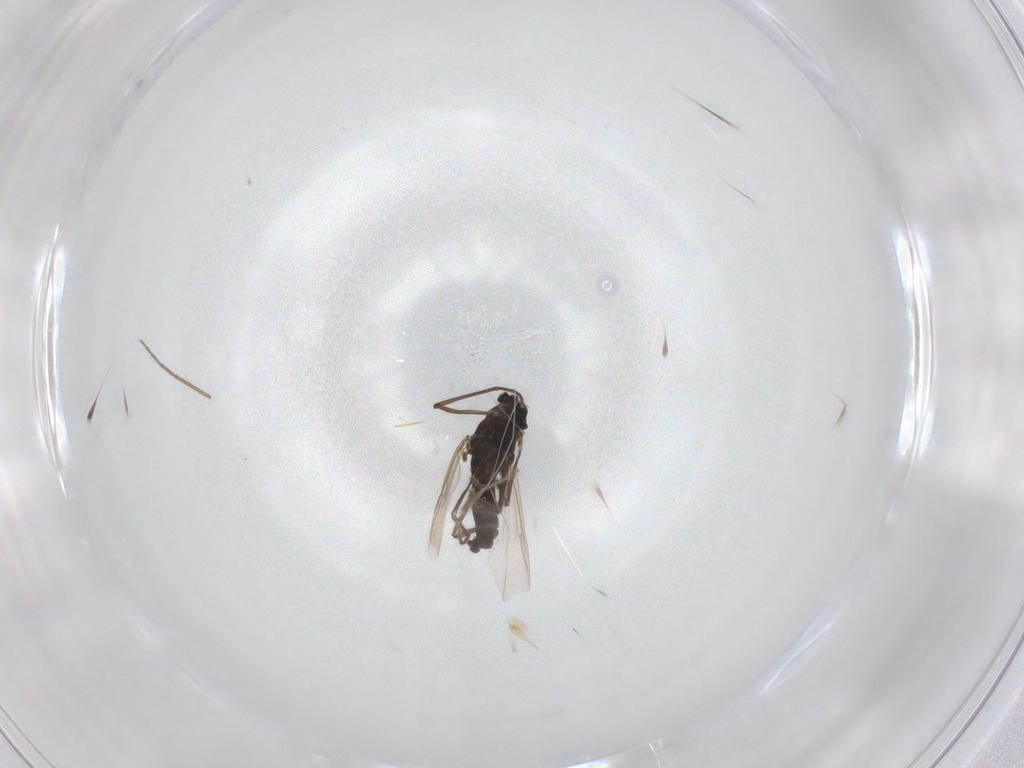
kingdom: Animalia
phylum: Arthropoda
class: Insecta
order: Diptera
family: Chironomidae
